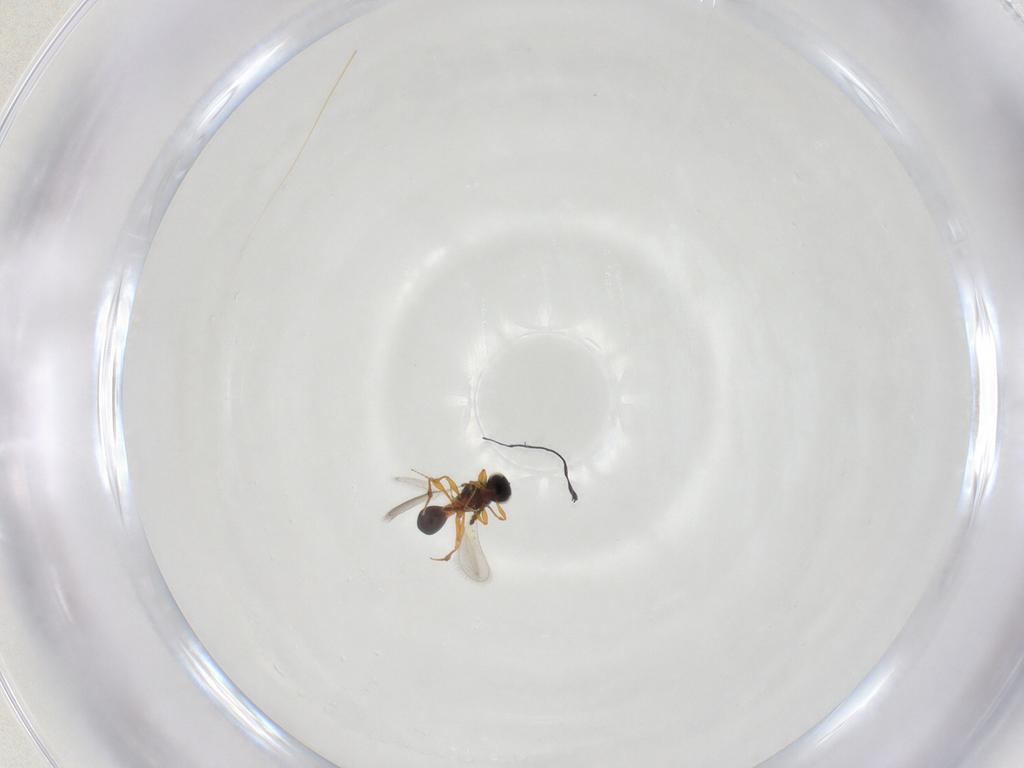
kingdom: Animalia
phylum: Arthropoda
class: Insecta
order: Hymenoptera
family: Platygastridae
